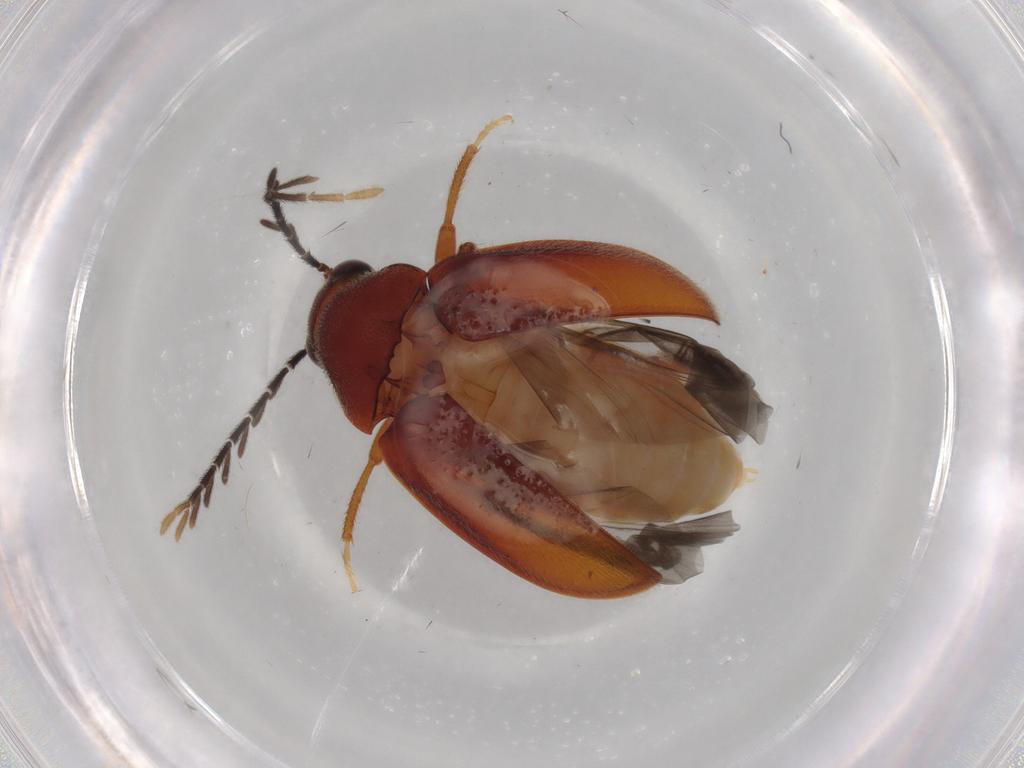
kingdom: Animalia
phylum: Arthropoda
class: Insecta
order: Coleoptera
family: Ptilodactylidae
